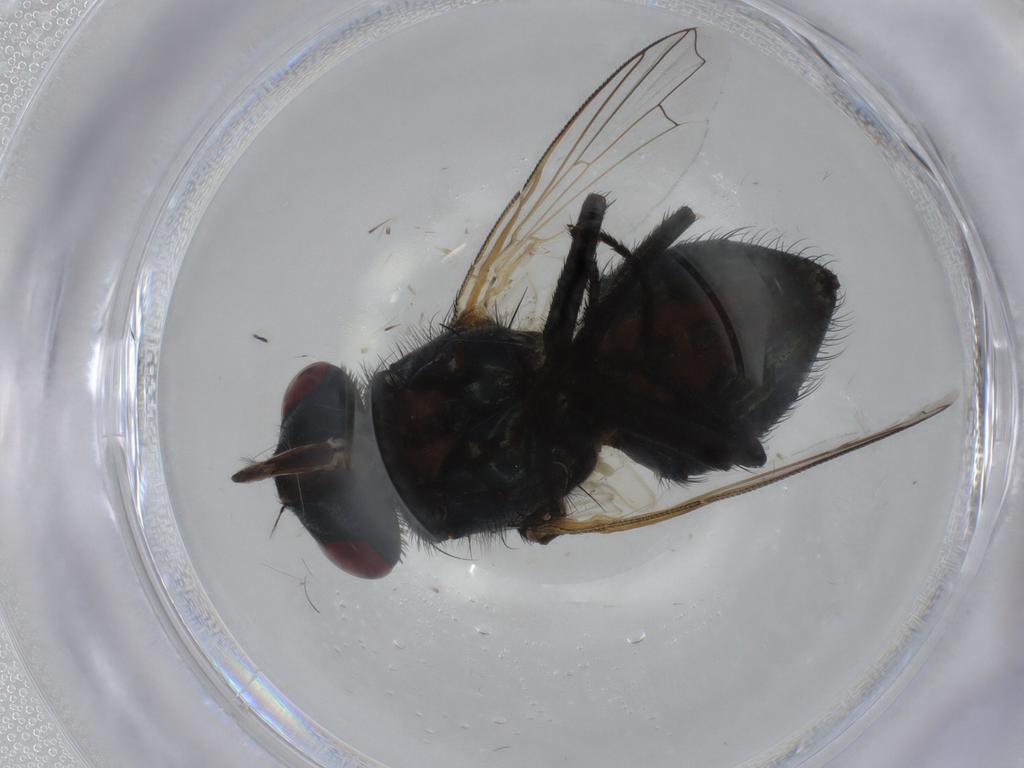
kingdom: Animalia
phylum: Arthropoda
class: Insecta
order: Diptera
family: Muscidae
